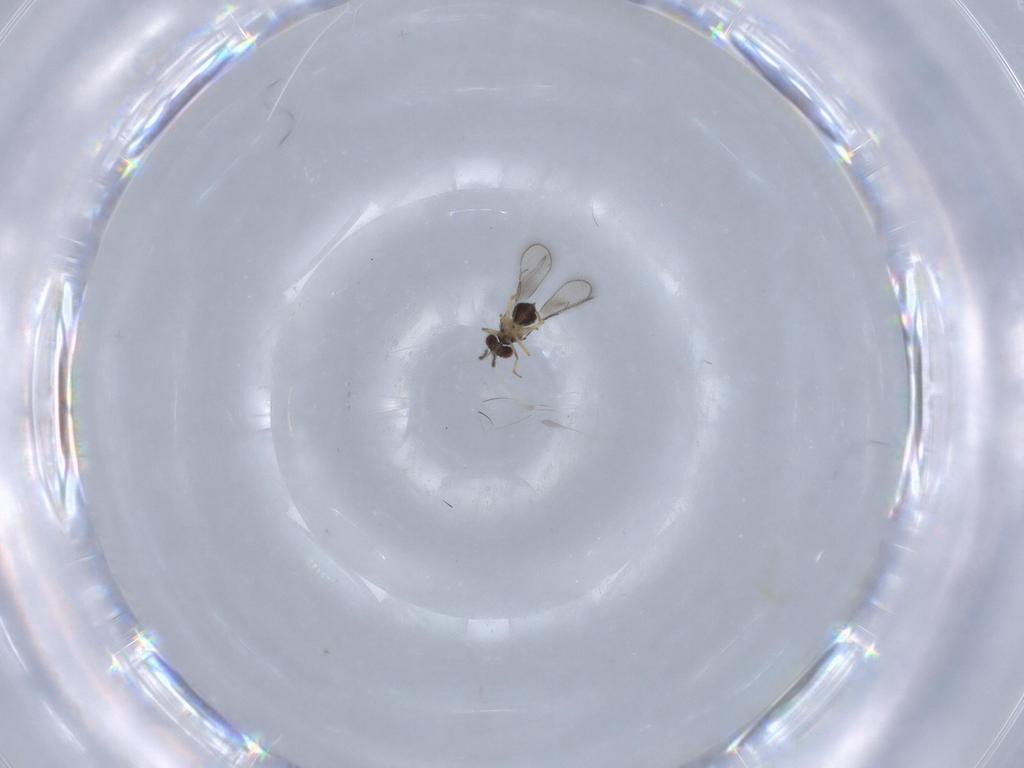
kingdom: Animalia
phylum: Arthropoda
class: Insecta
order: Hymenoptera
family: Scelionidae
